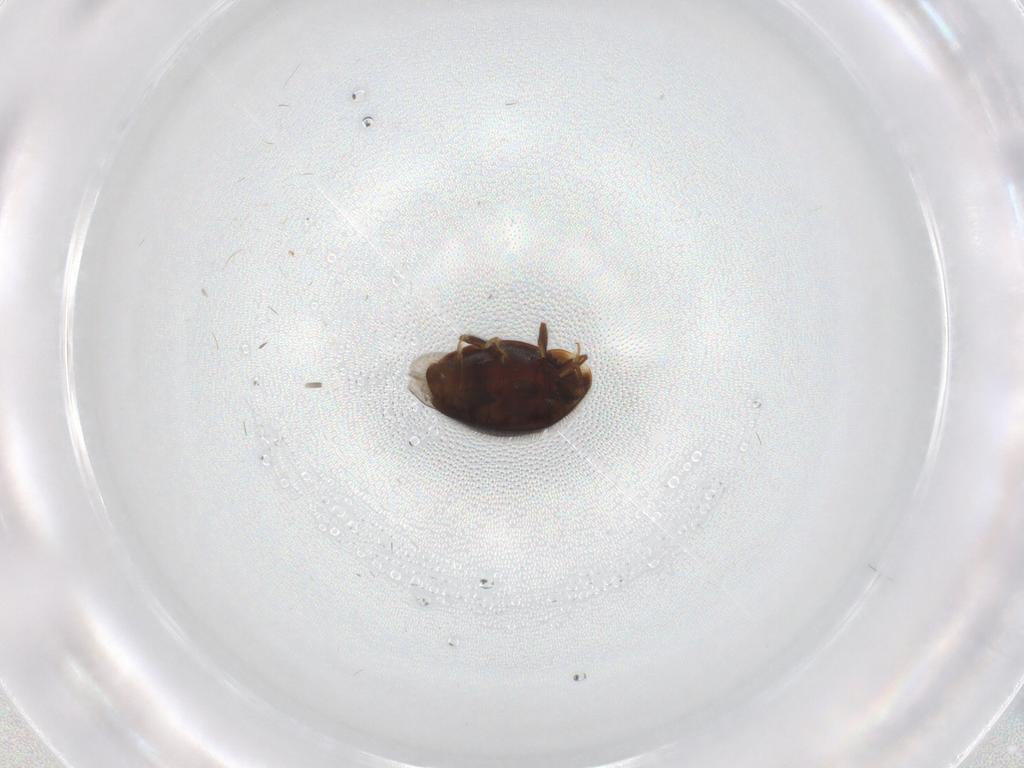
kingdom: Animalia
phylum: Arthropoda
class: Insecta
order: Coleoptera
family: Corylophidae
